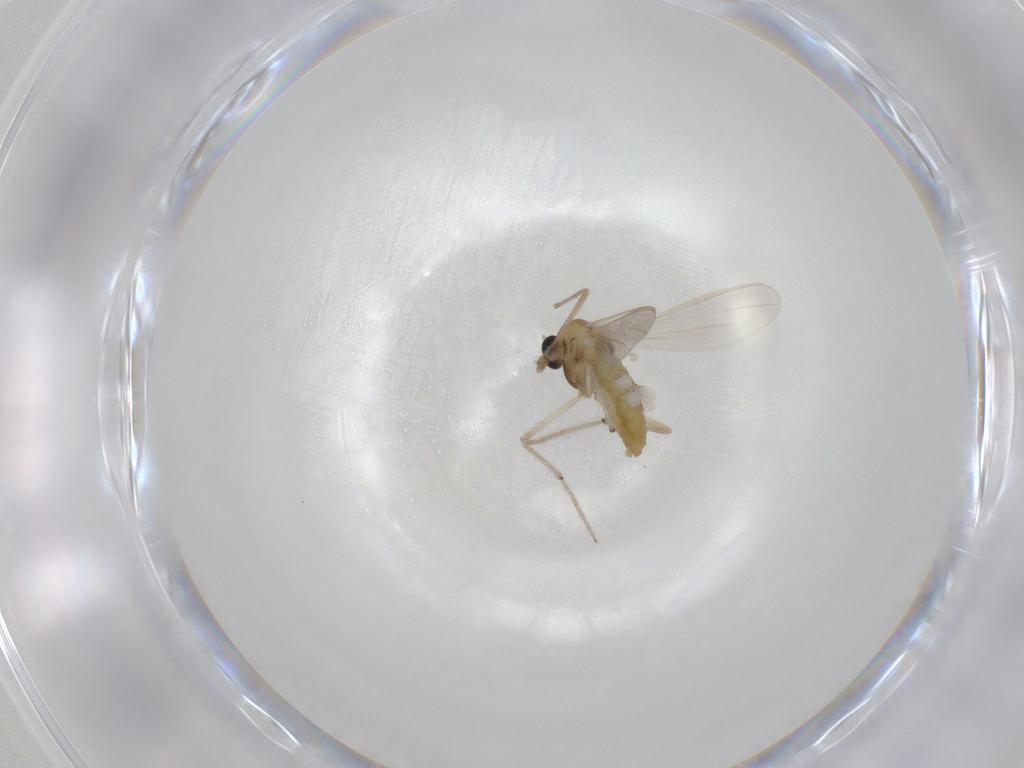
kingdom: Animalia
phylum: Arthropoda
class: Insecta
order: Diptera
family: Chironomidae
